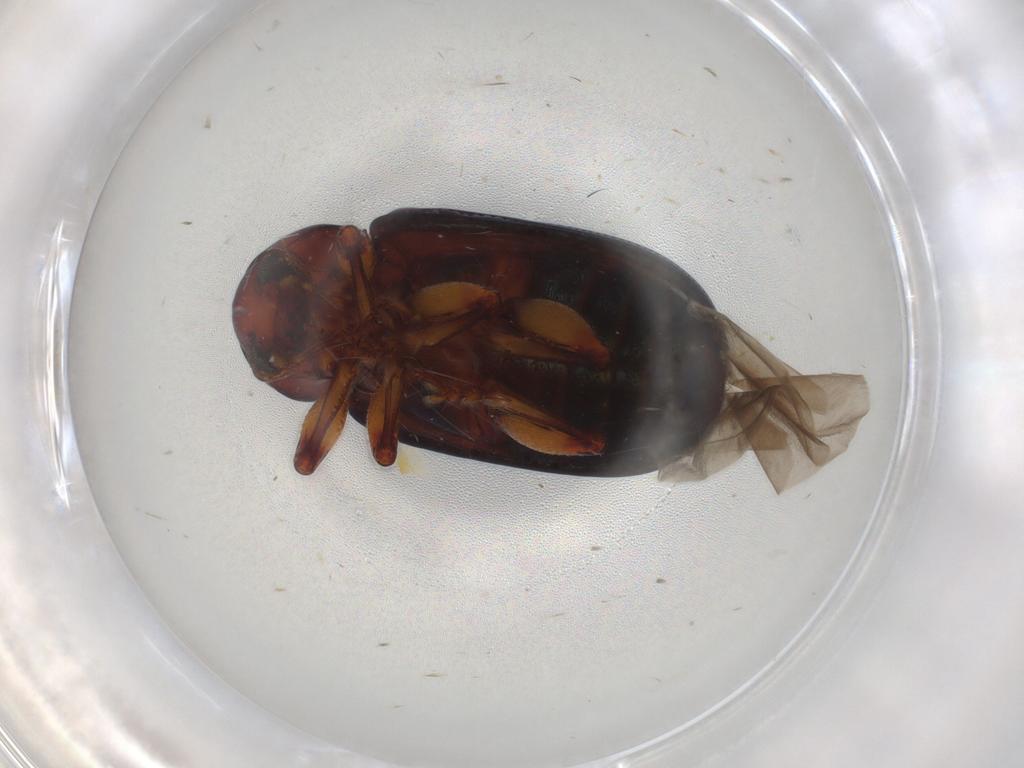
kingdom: Animalia
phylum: Arthropoda
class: Insecta
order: Coleoptera
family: Chrysomelidae
